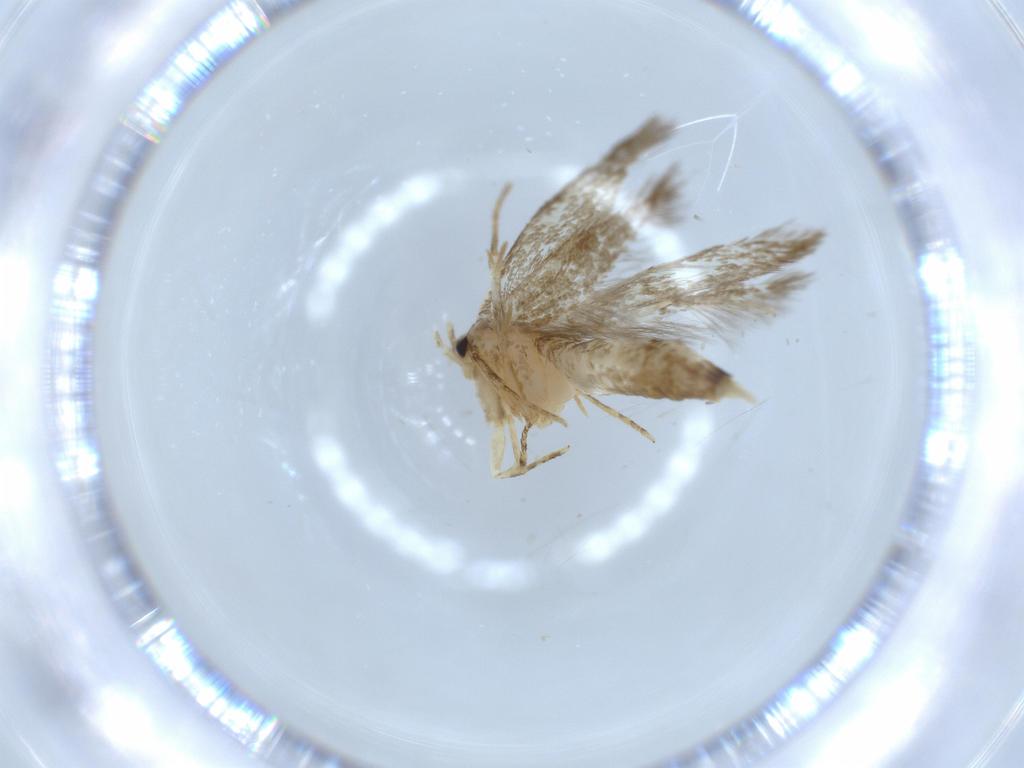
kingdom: Animalia
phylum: Arthropoda
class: Insecta
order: Lepidoptera
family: Tineidae
